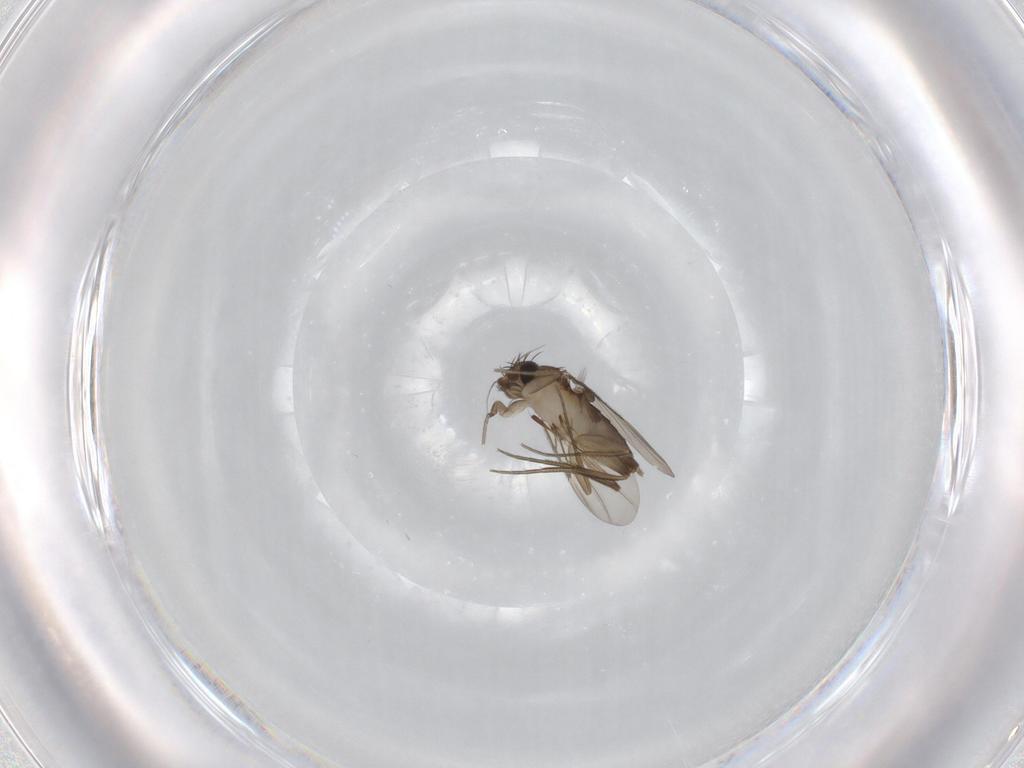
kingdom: Animalia
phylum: Arthropoda
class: Insecta
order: Diptera
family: Phoridae
